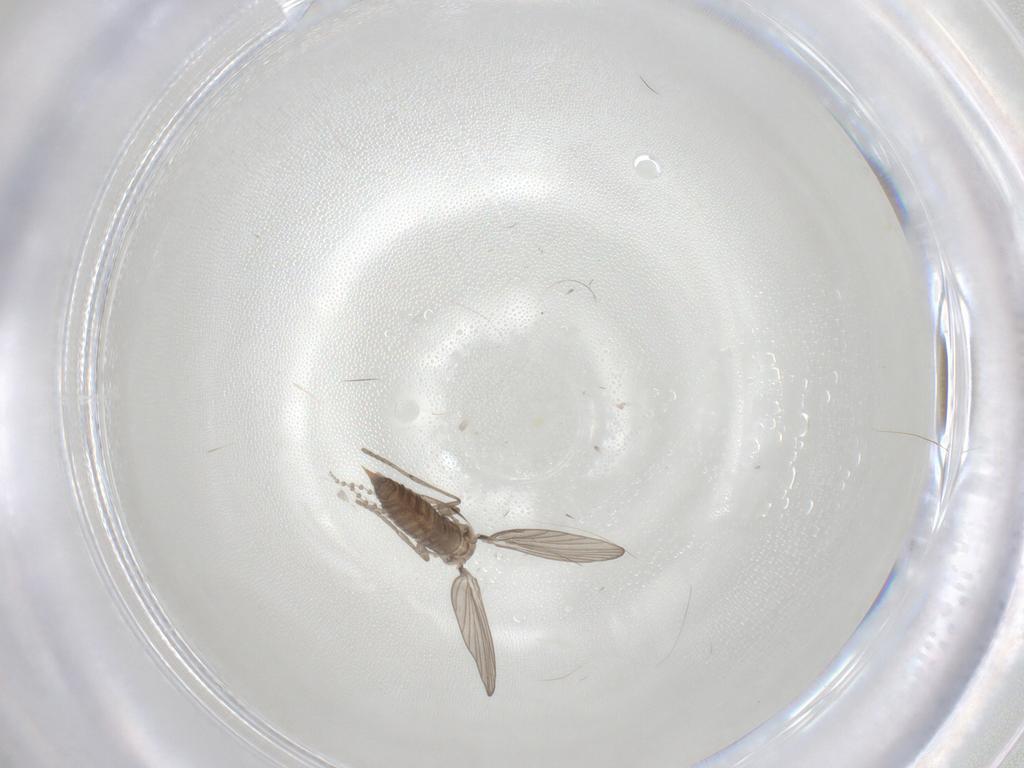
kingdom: Animalia
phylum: Arthropoda
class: Insecta
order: Diptera
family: Psychodidae
